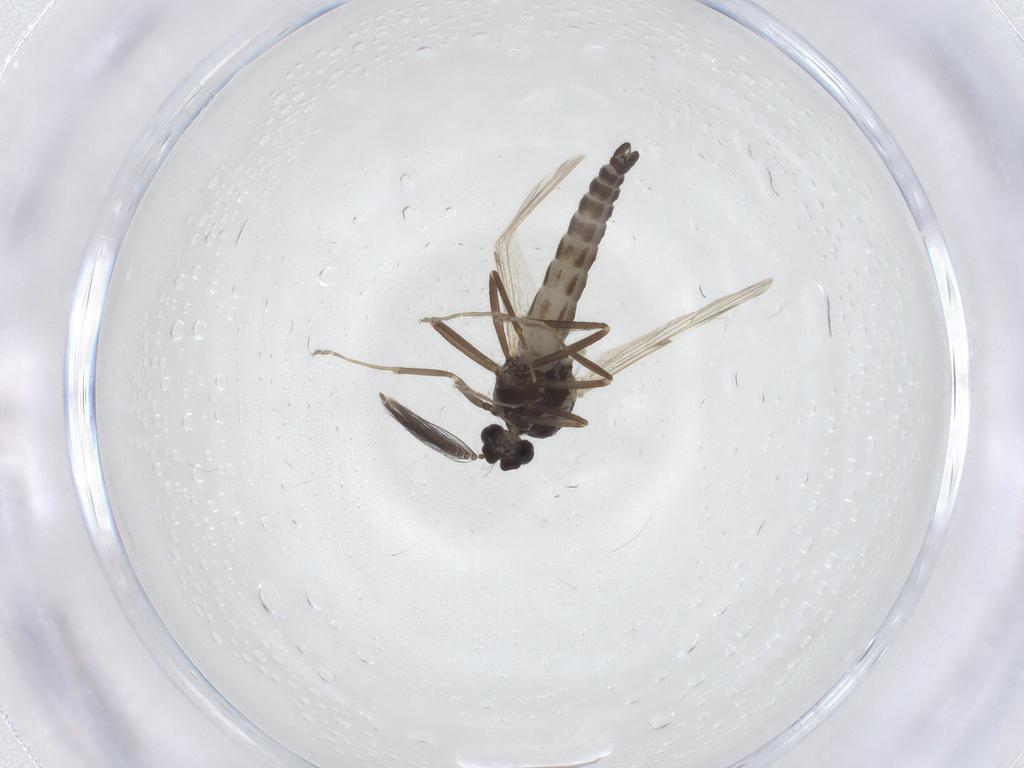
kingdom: Animalia
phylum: Arthropoda
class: Insecta
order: Diptera
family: Ceratopogonidae
